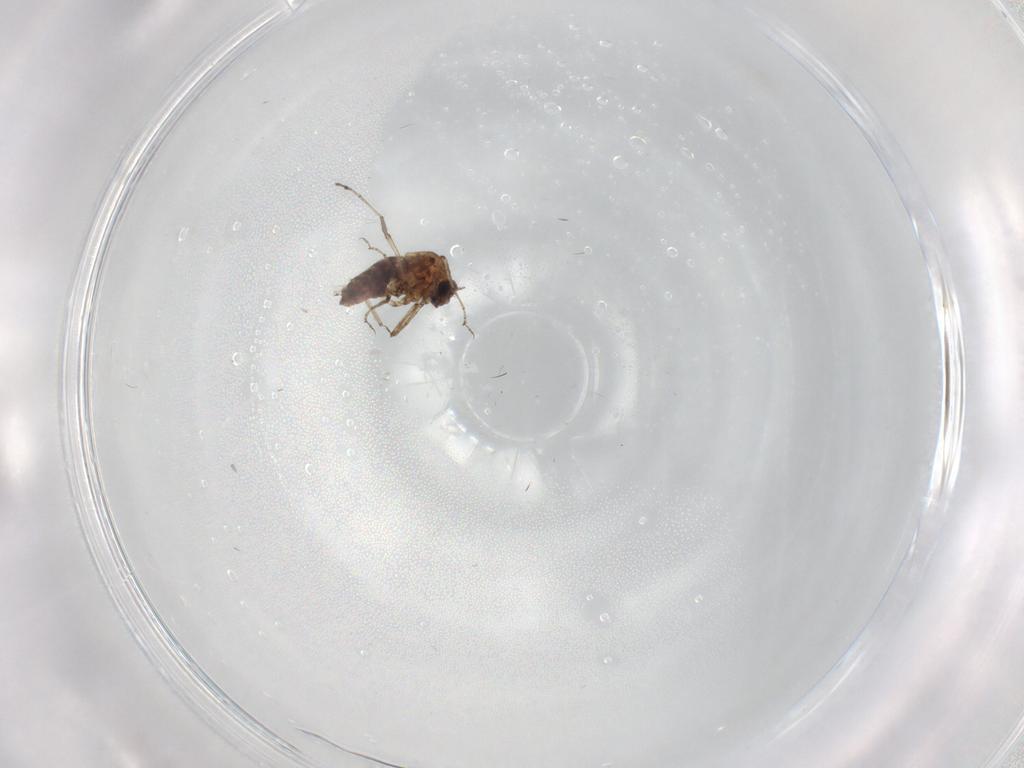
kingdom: Animalia
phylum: Arthropoda
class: Insecta
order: Diptera
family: Ceratopogonidae
